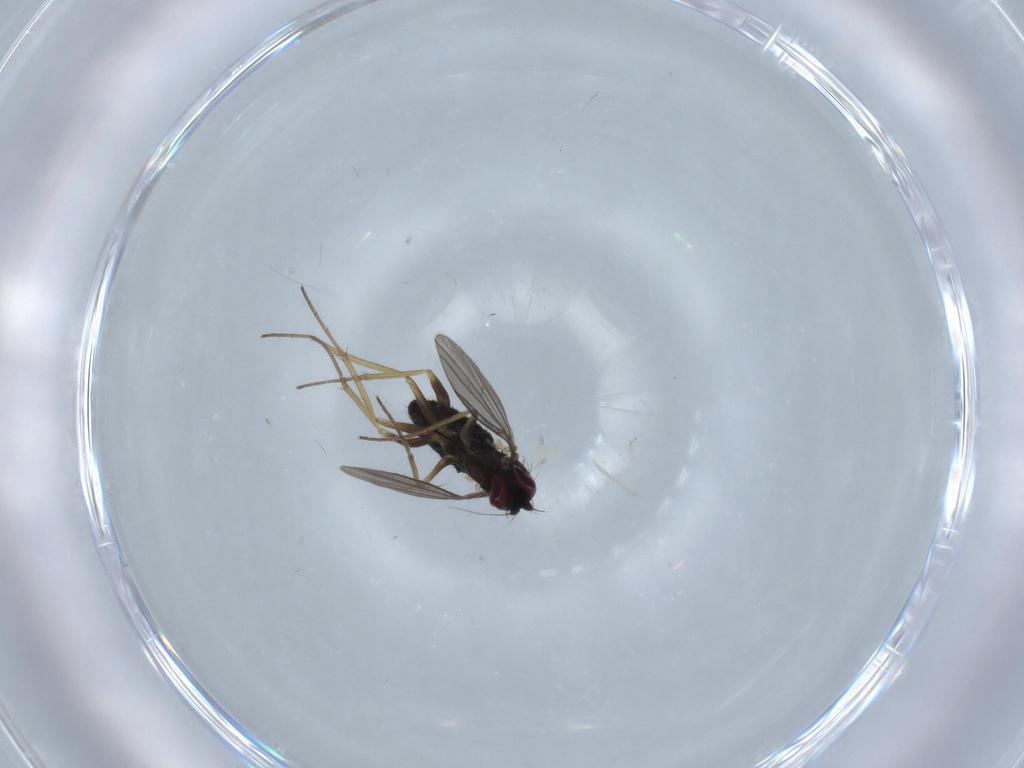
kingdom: Animalia
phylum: Arthropoda
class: Insecta
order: Diptera
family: Dolichopodidae
